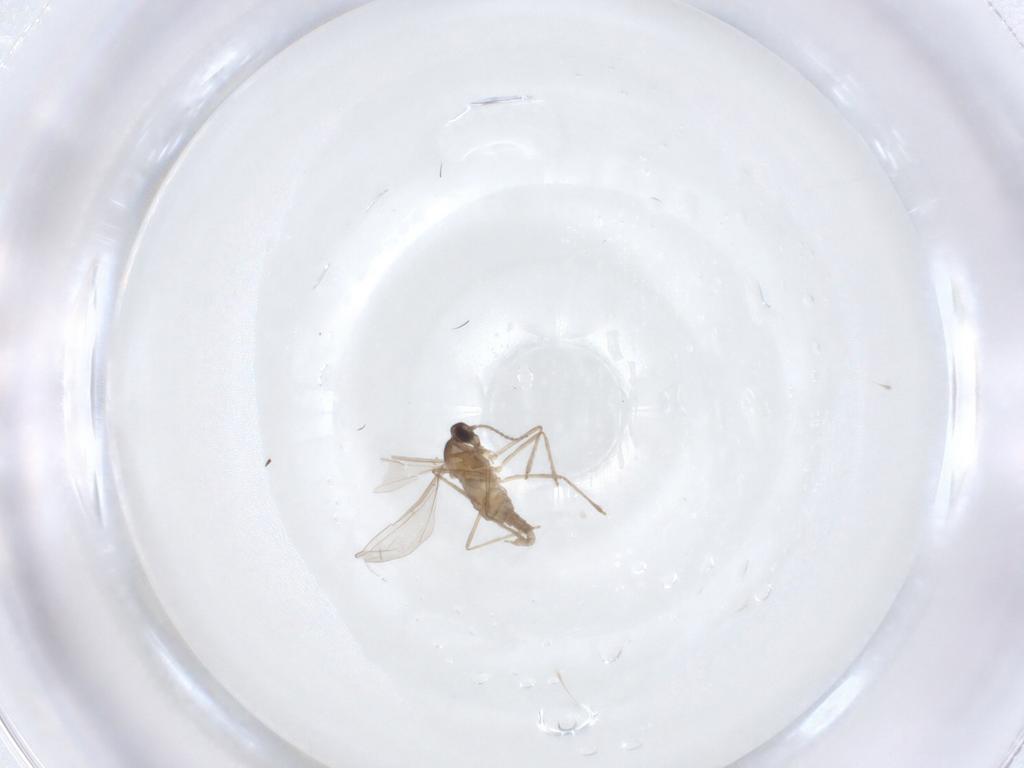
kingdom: Animalia
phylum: Arthropoda
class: Insecta
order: Diptera
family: Cecidomyiidae
